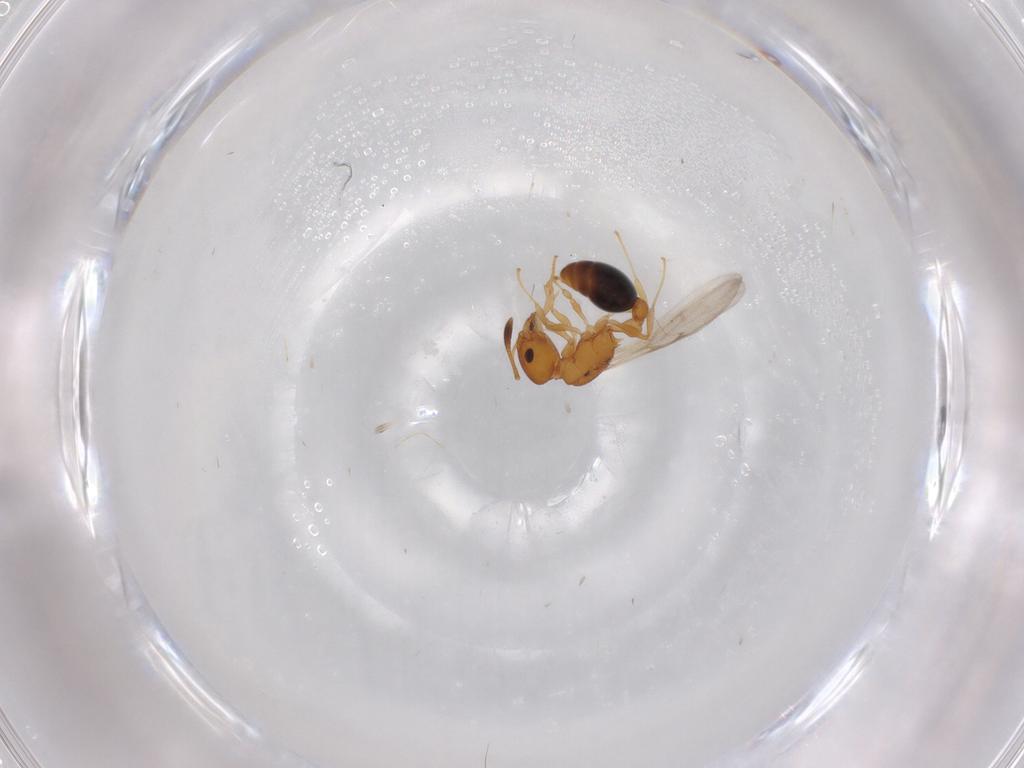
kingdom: Animalia
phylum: Arthropoda
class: Insecta
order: Hymenoptera
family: Formicidae
